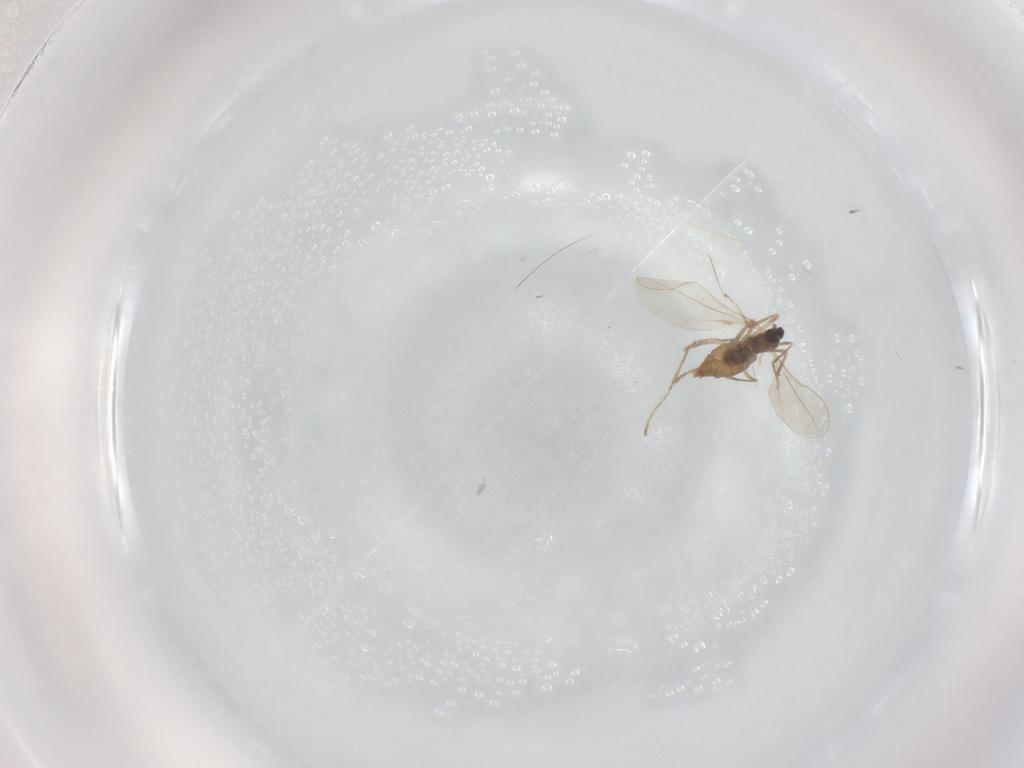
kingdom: Animalia
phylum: Arthropoda
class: Insecta
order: Diptera
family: Cecidomyiidae
